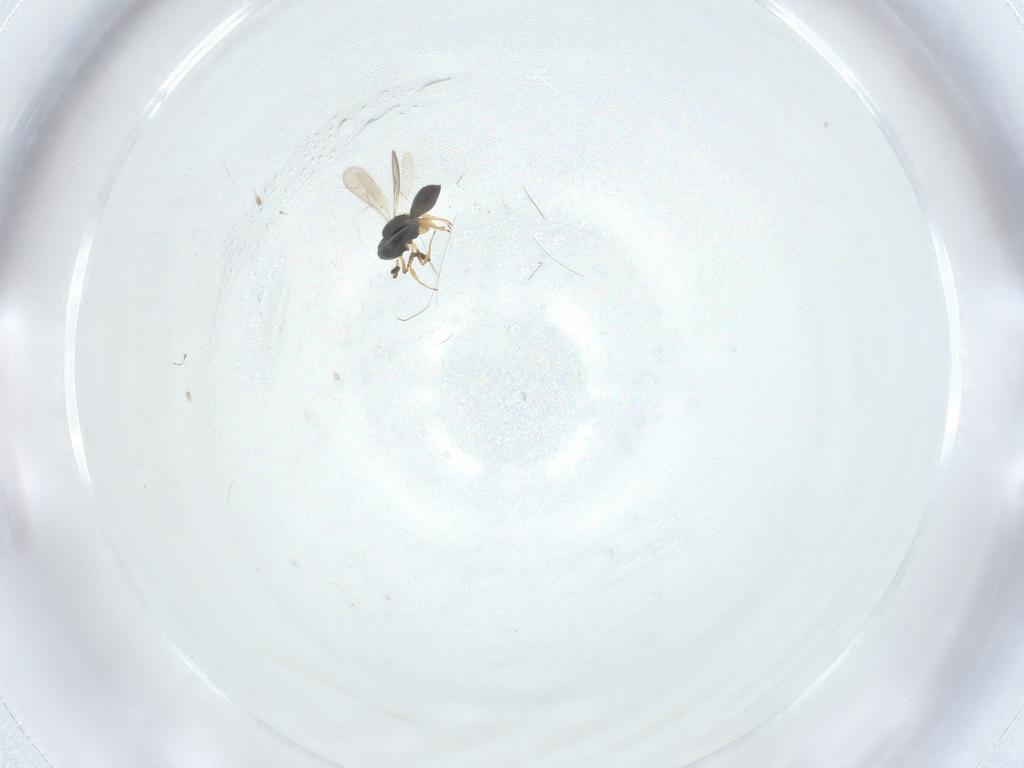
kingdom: Animalia
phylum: Arthropoda
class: Insecta
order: Hymenoptera
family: Scelionidae
